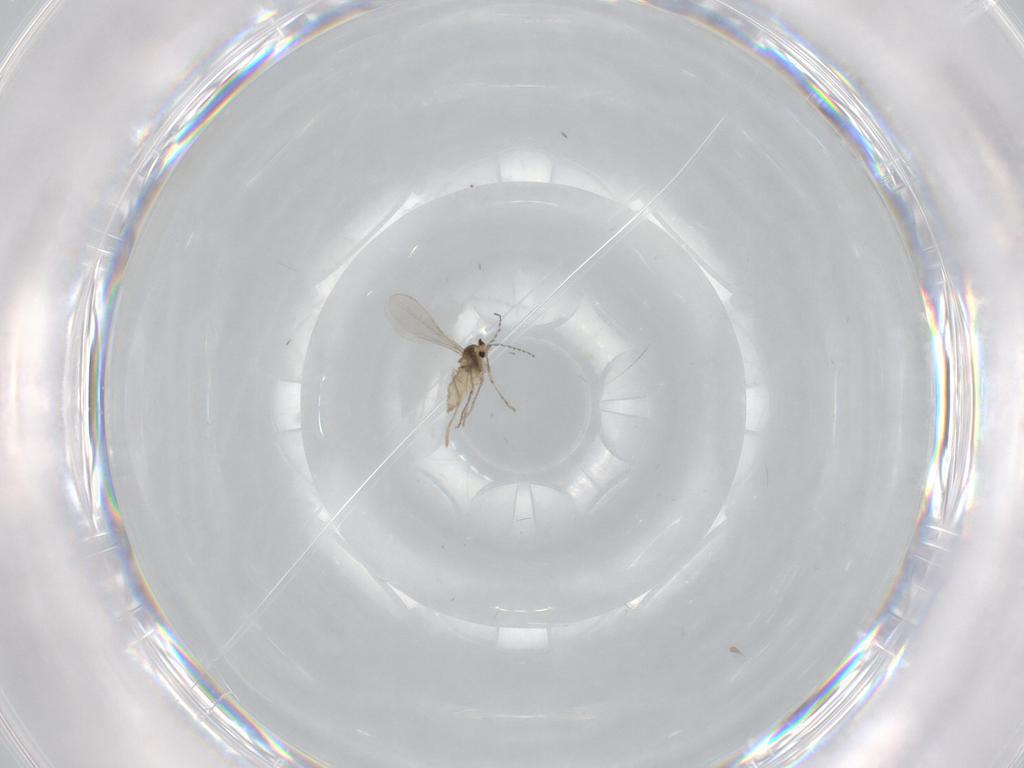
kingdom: Animalia
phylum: Arthropoda
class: Insecta
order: Diptera
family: Cecidomyiidae
